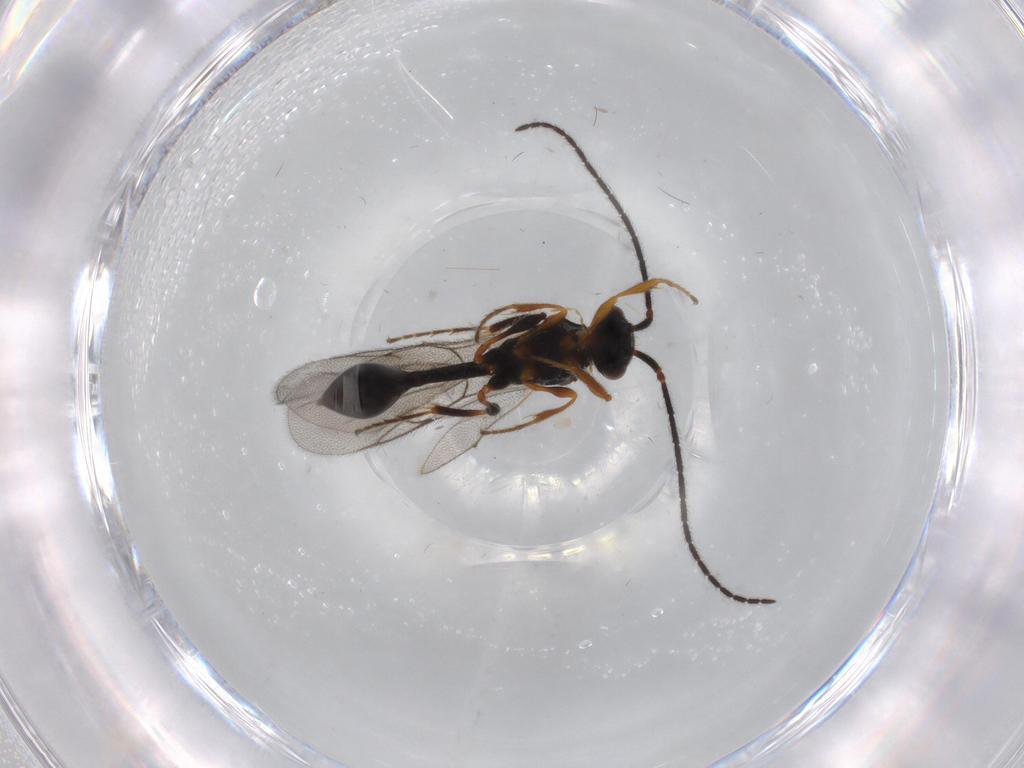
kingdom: Animalia
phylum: Arthropoda
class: Insecta
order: Hymenoptera
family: Diapriidae
